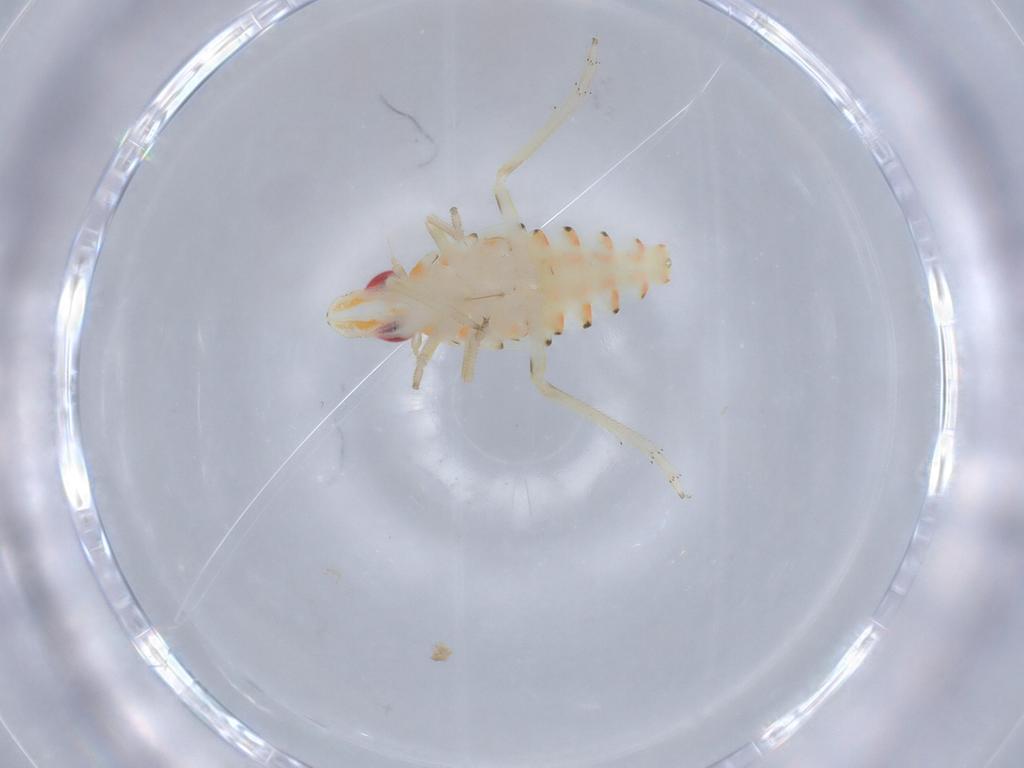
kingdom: Animalia
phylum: Arthropoda
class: Insecta
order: Hemiptera
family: Tropiduchidae
